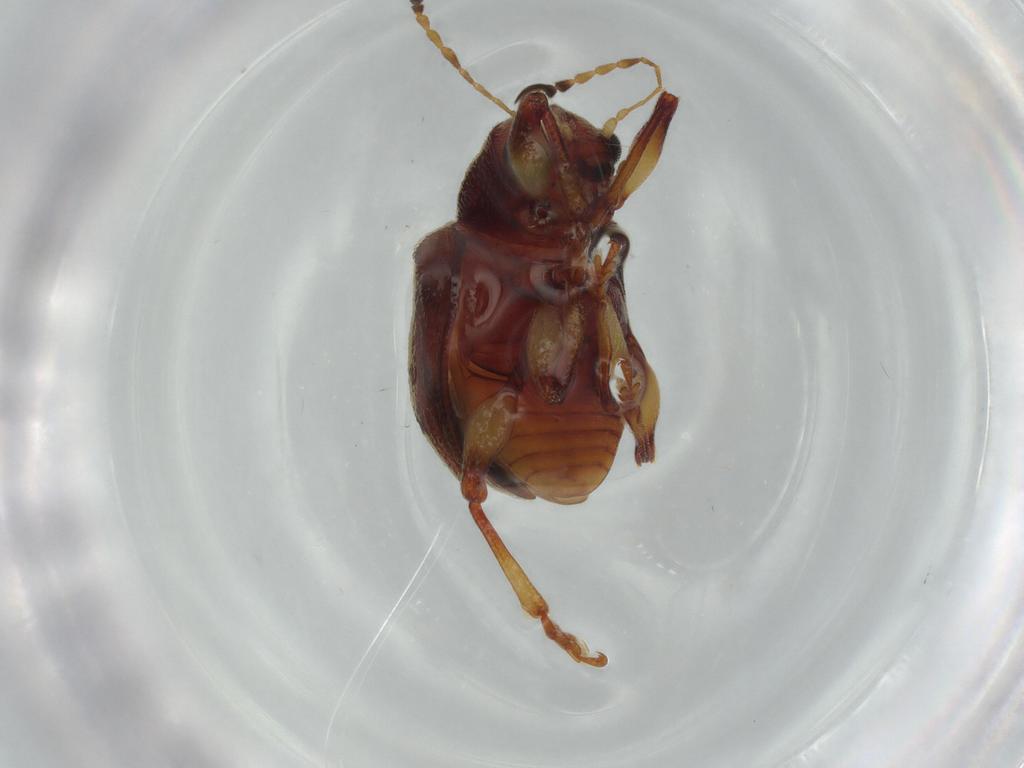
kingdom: Animalia
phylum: Arthropoda
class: Insecta
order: Coleoptera
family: Chrysomelidae
